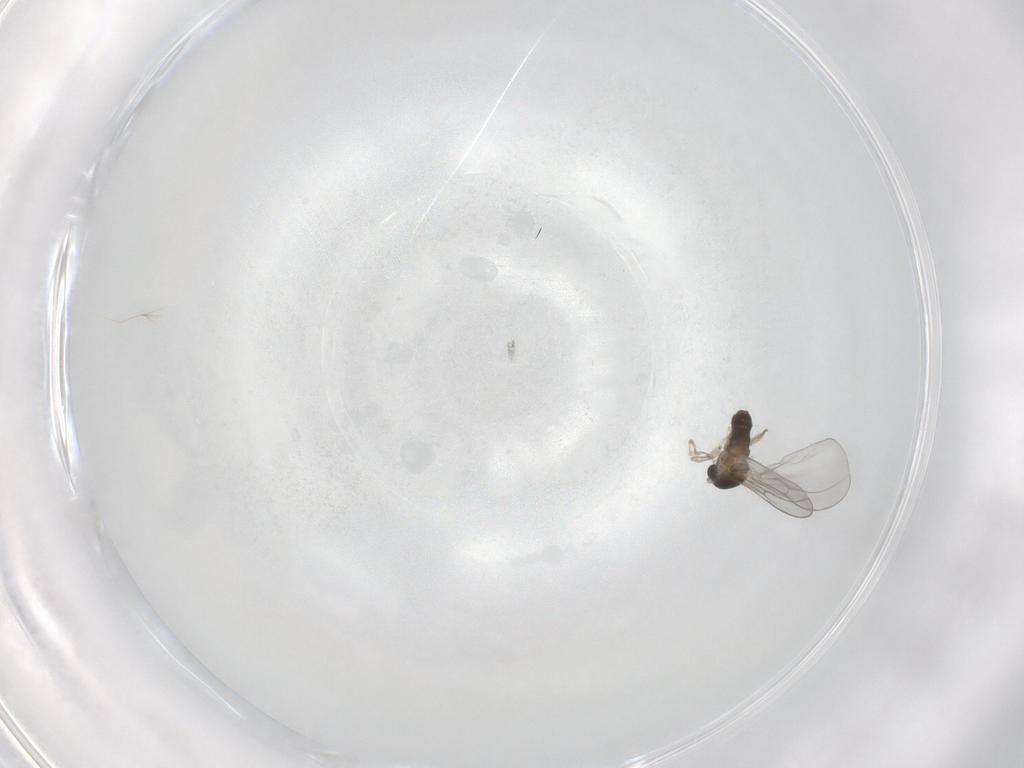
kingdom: Animalia
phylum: Arthropoda
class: Insecta
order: Diptera
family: Cecidomyiidae
